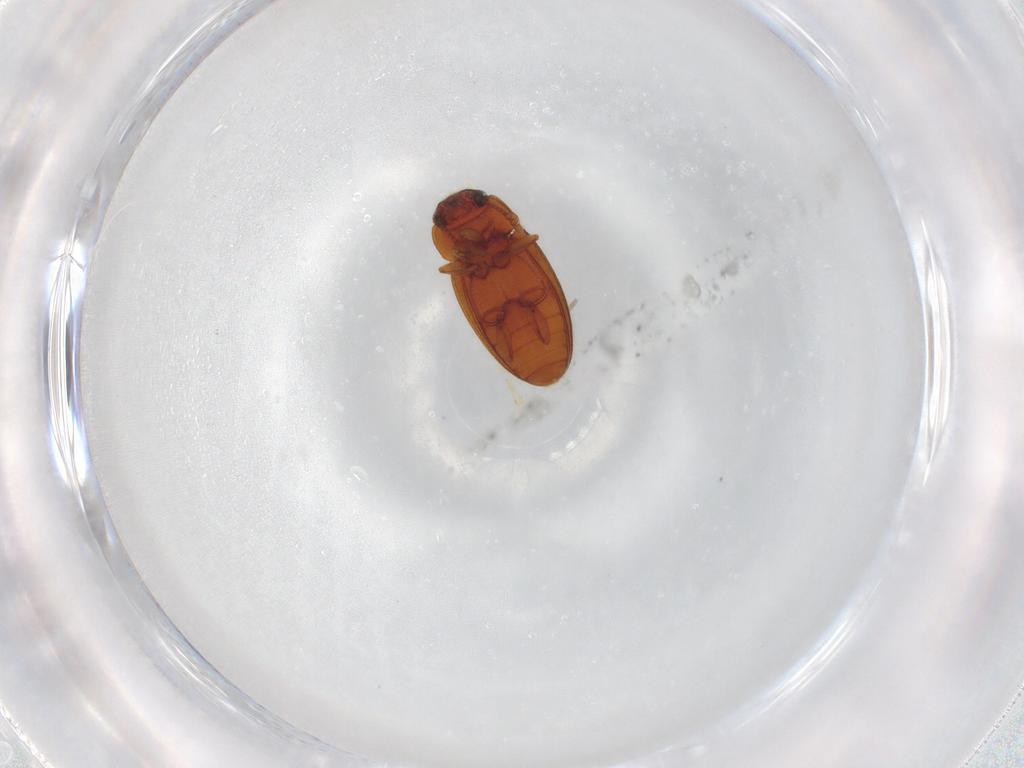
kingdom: Animalia
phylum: Arthropoda
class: Insecta
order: Coleoptera
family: Erotylidae
